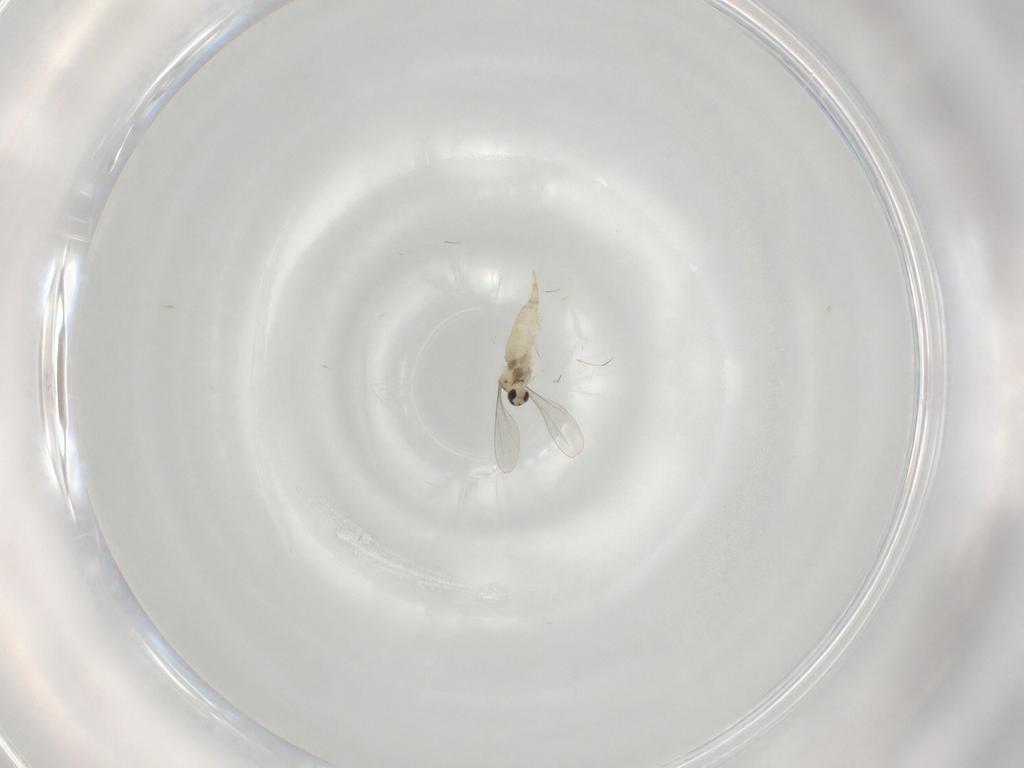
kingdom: Animalia
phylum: Arthropoda
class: Insecta
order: Diptera
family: Cecidomyiidae
